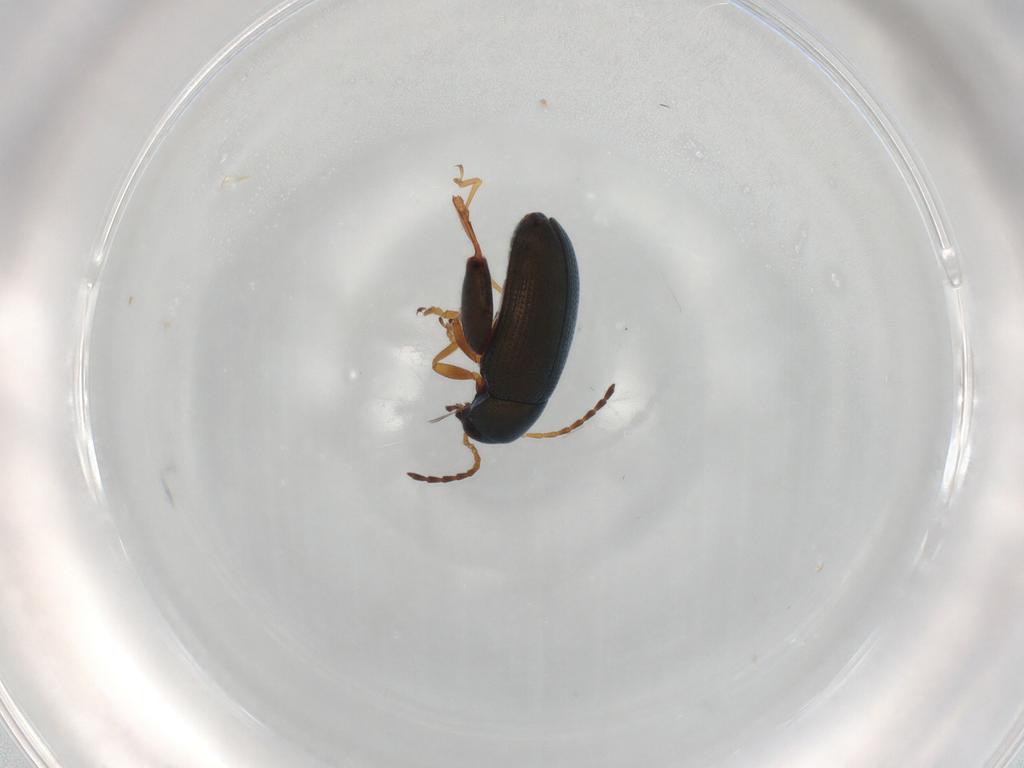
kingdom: Animalia
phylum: Arthropoda
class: Insecta
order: Coleoptera
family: Chrysomelidae
